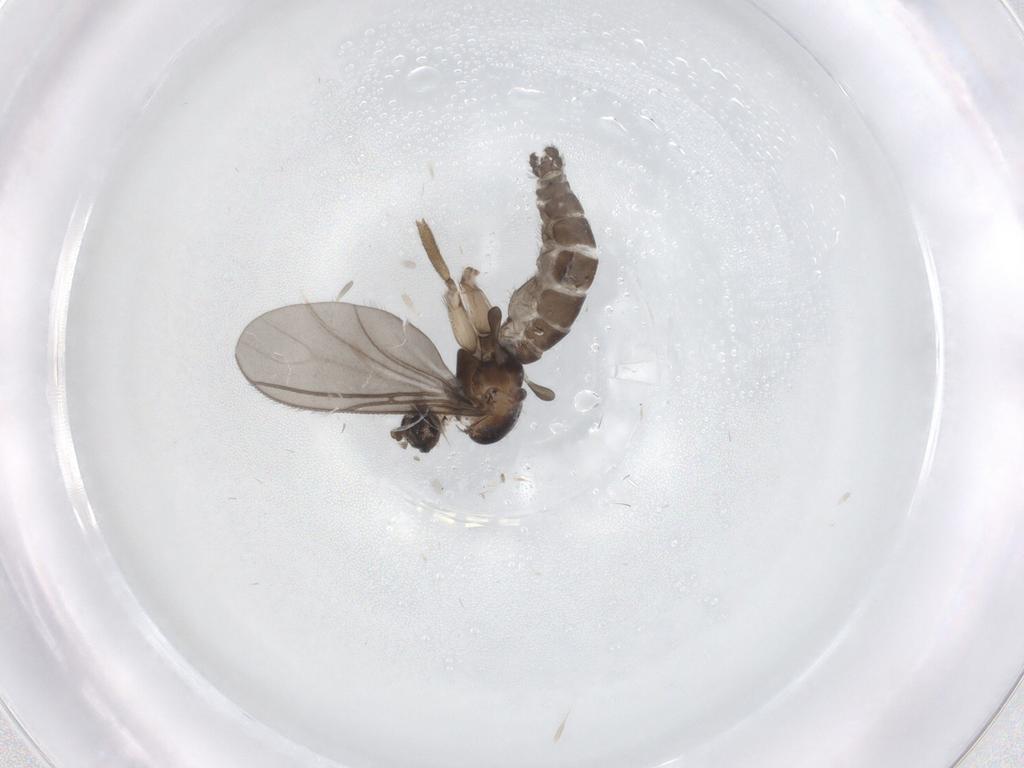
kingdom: Animalia
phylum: Arthropoda
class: Insecta
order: Diptera
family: Sciaridae
